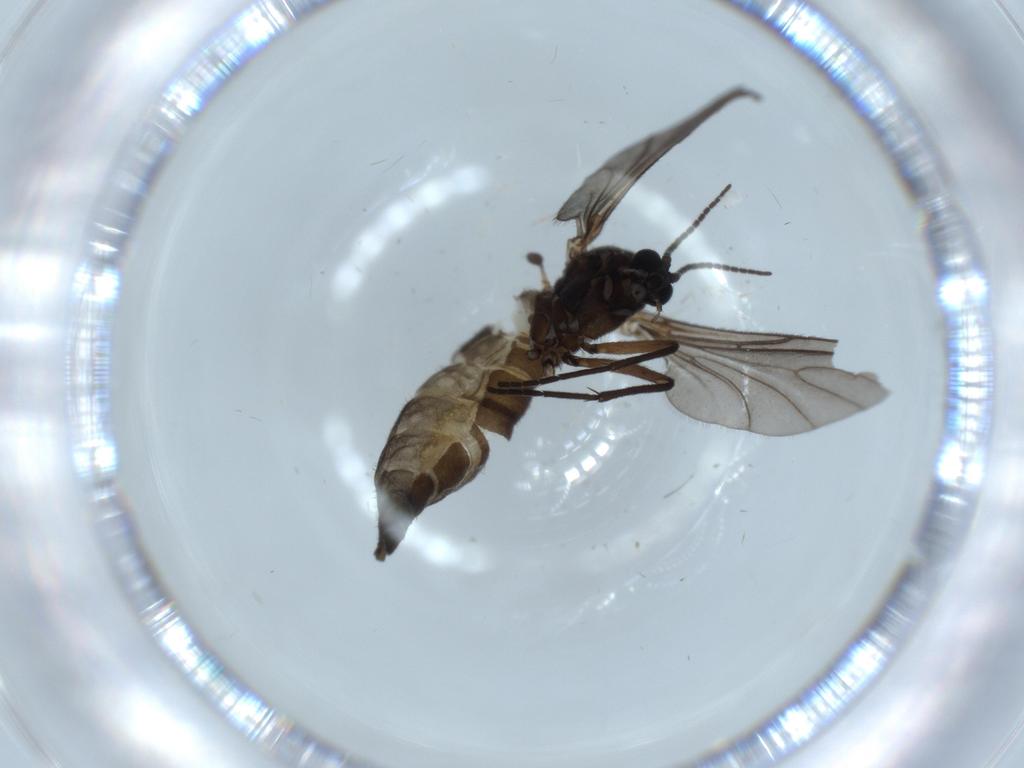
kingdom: Animalia
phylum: Arthropoda
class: Insecta
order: Diptera
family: Sciaridae
